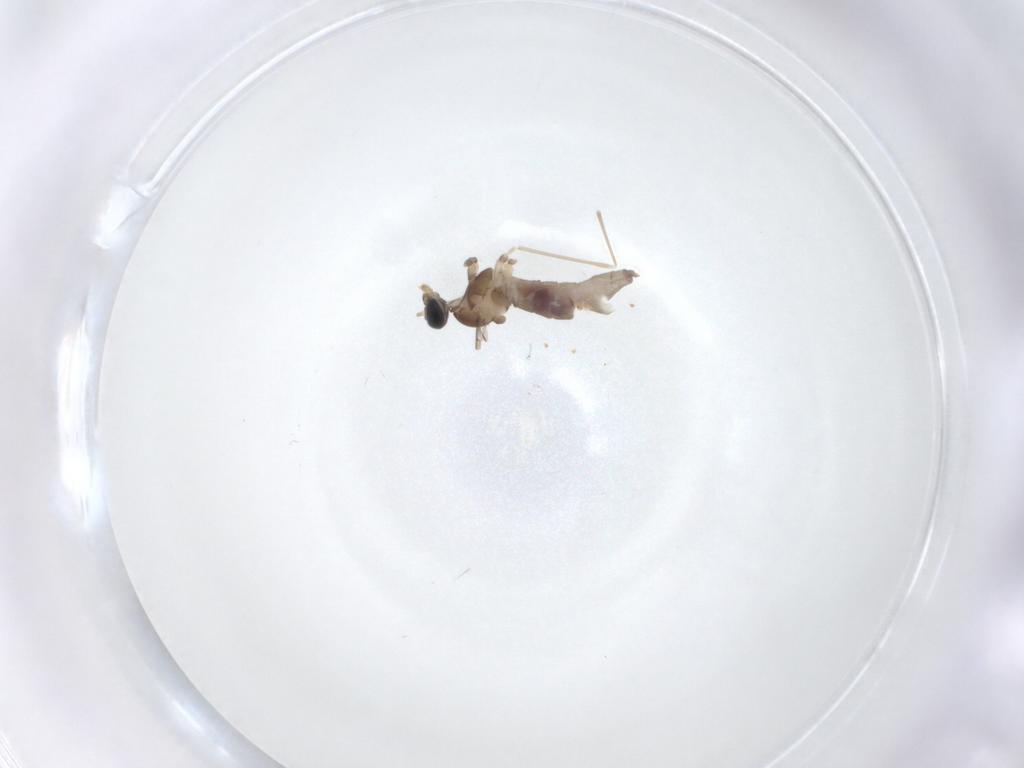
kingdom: Animalia
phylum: Arthropoda
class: Insecta
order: Diptera
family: Cecidomyiidae
